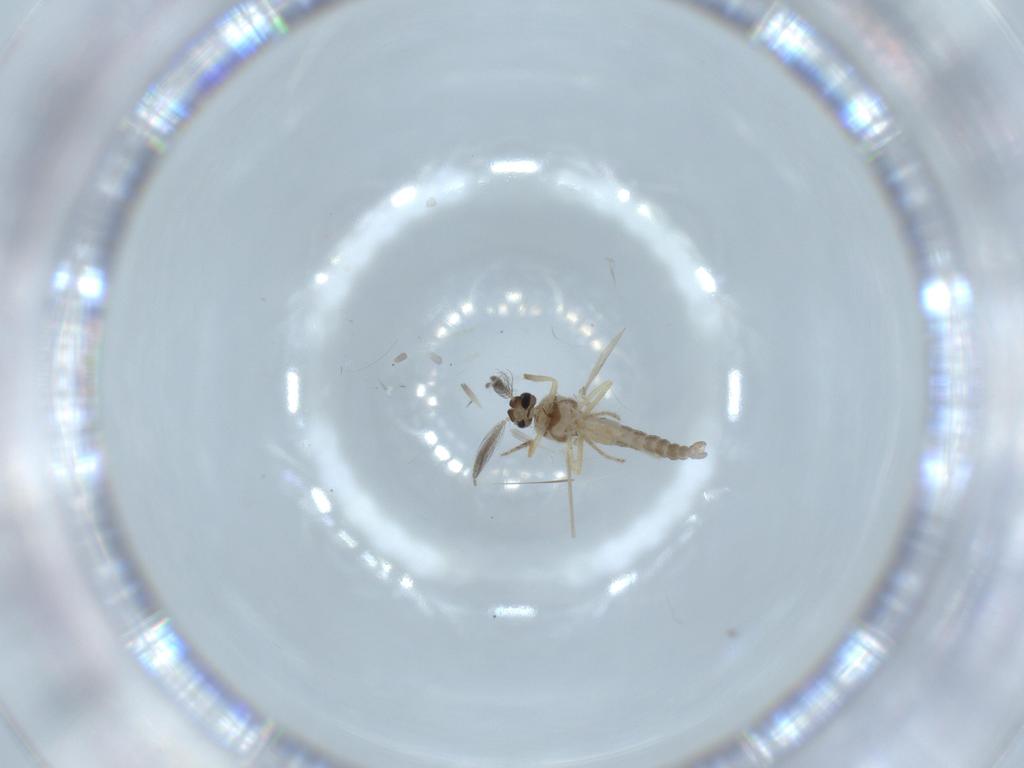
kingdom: Animalia
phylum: Arthropoda
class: Insecta
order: Diptera
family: Ceratopogonidae
